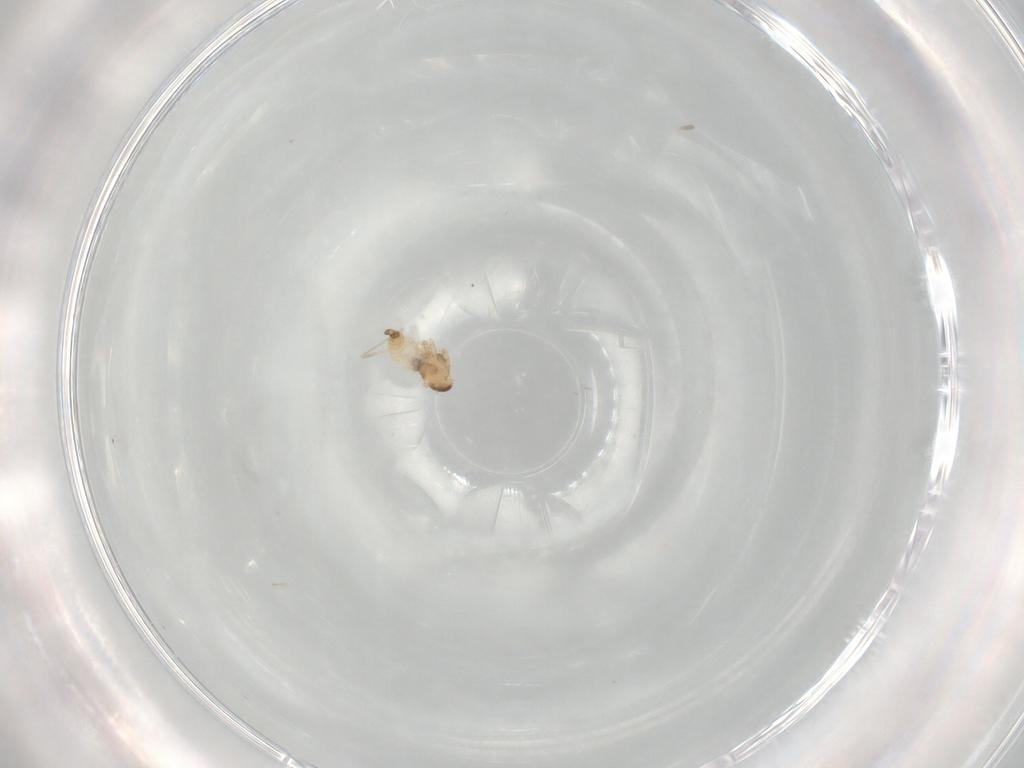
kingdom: Animalia
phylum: Arthropoda
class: Insecta
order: Diptera
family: Cecidomyiidae
